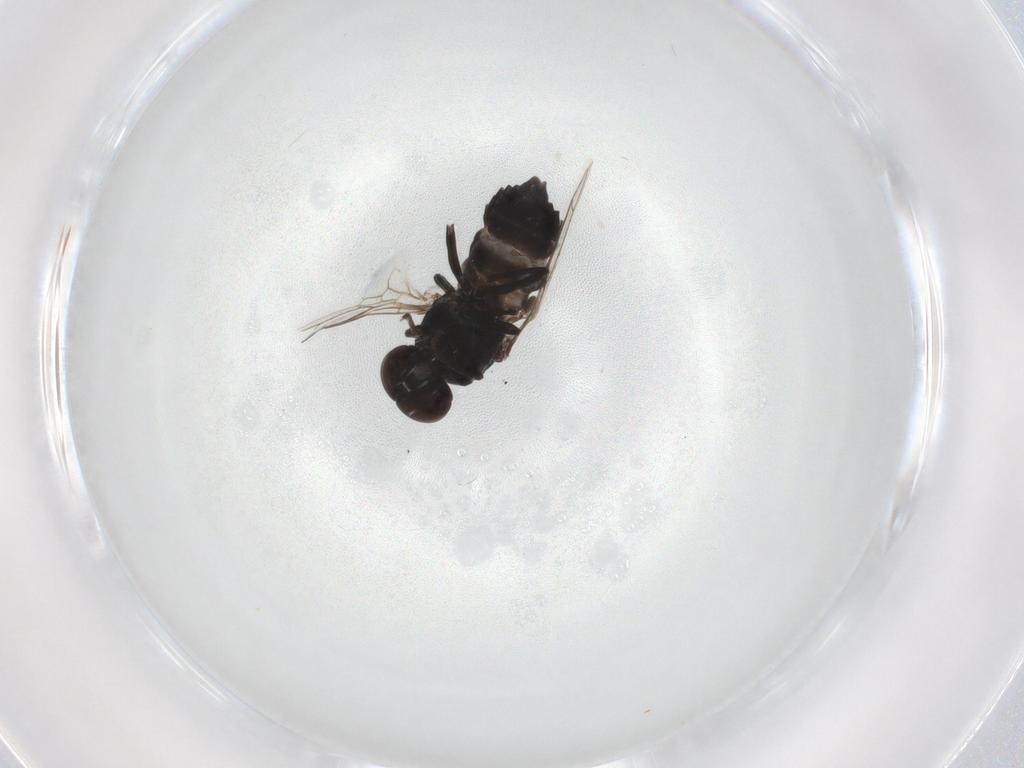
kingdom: Animalia
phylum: Arthropoda
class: Insecta
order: Diptera
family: Scenopinidae
